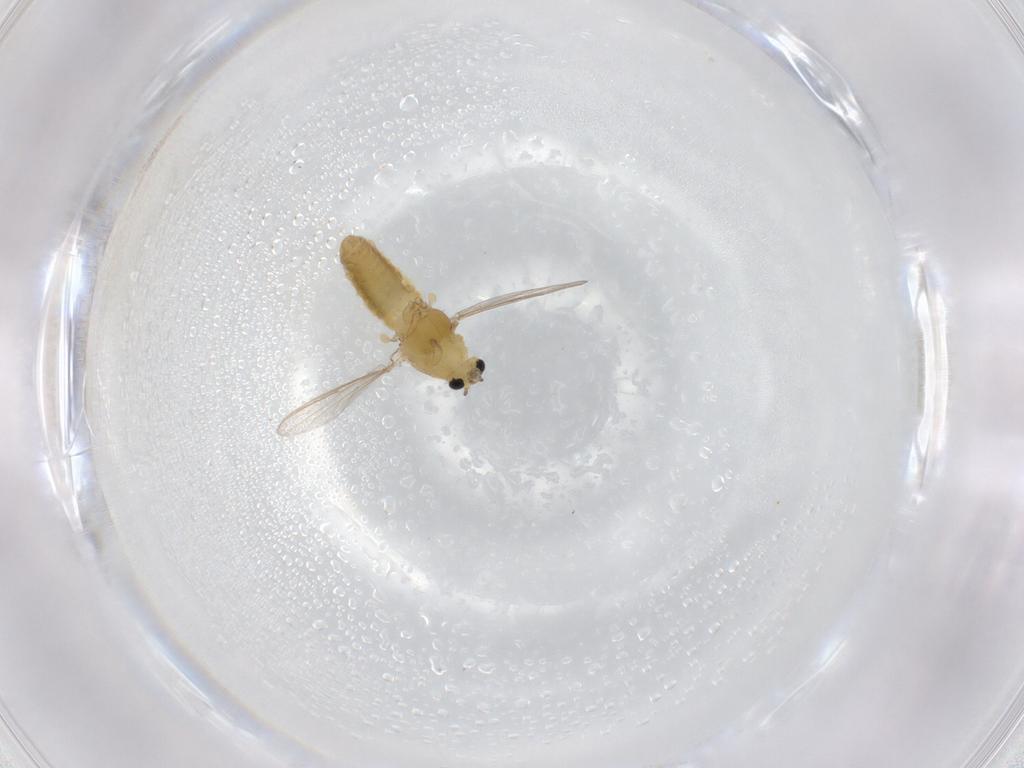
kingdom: Animalia
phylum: Arthropoda
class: Insecta
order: Diptera
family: Chironomidae
